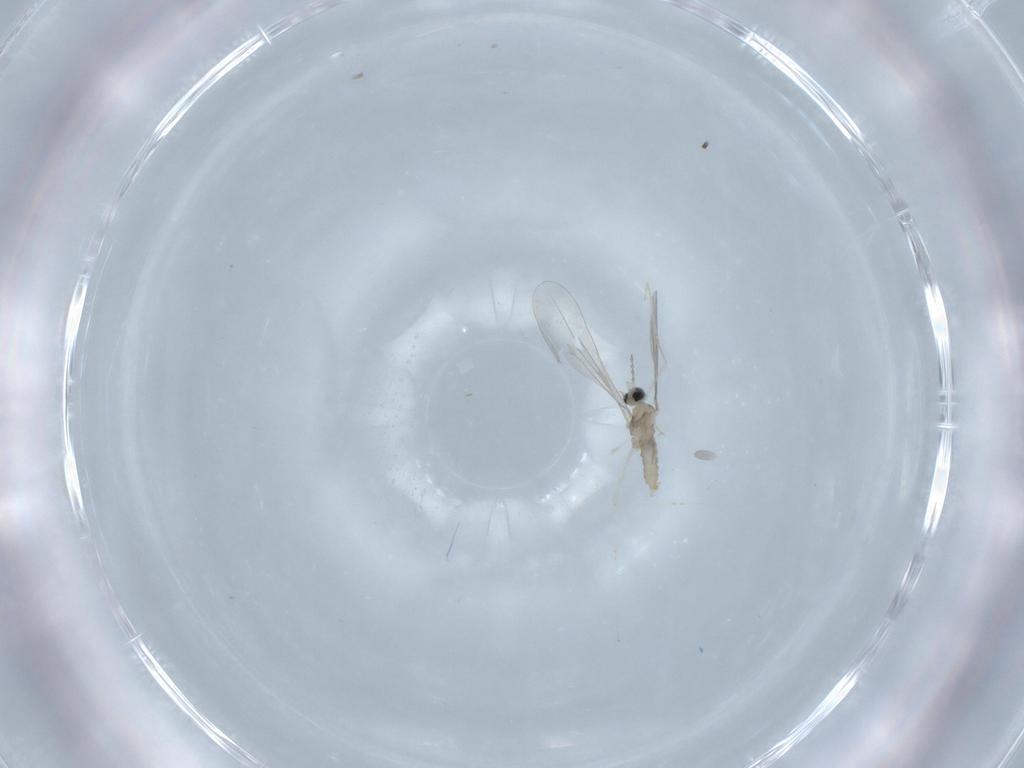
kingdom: Animalia
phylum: Arthropoda
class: Insecta
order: Diptera
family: Cecidomyiidae
